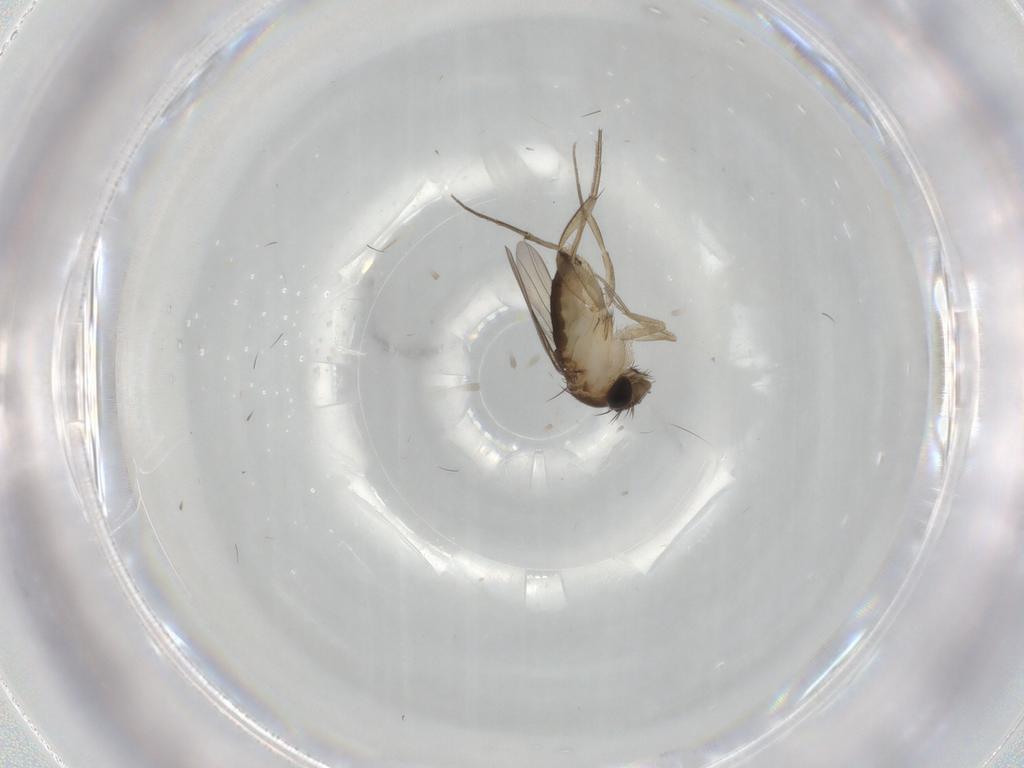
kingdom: Animalia
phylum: Arthropoda
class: Insecta
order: Diptera
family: Phoridae
